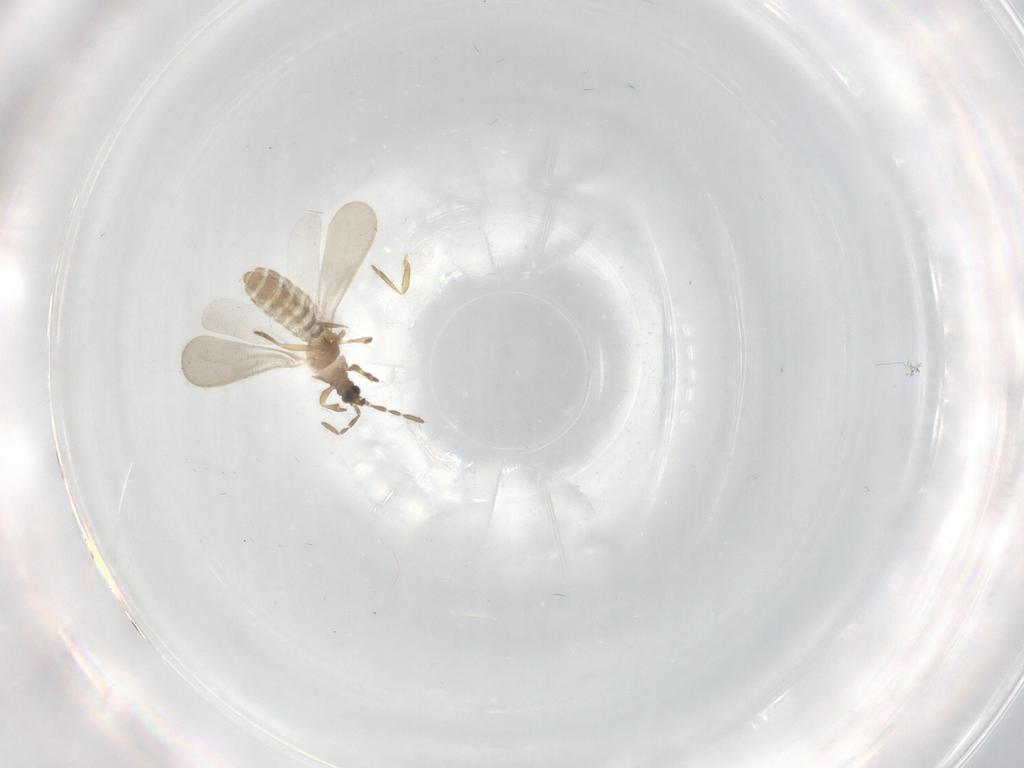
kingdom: Animalia
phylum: Arthropoda
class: Insecta
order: Hemiptera
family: Enicocephalidae
